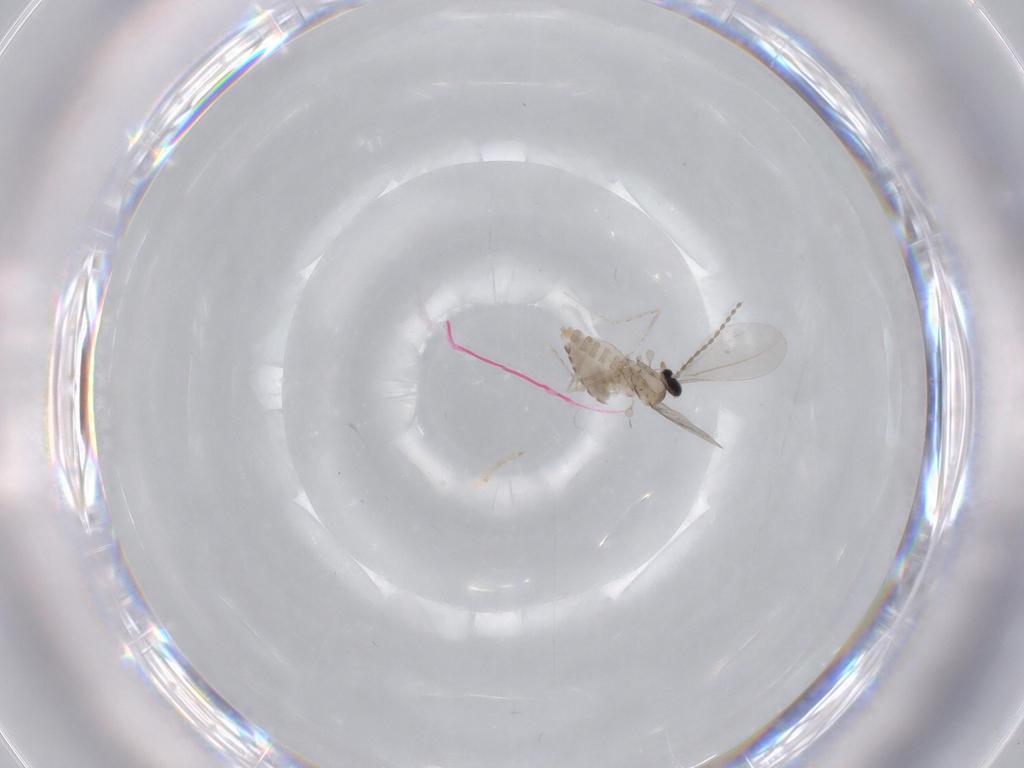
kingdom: Animalia
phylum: Arthropoda
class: Insecta
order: Diptera
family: Cecidomyiidae
